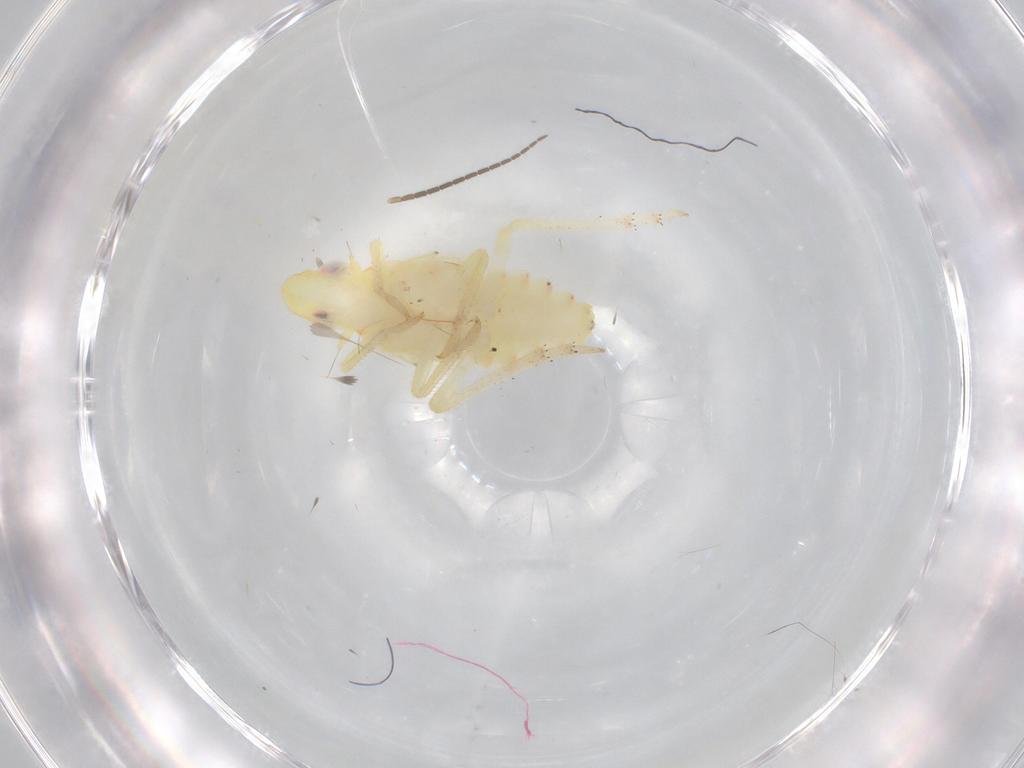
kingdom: Animalia
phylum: Arthropoda
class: Insecta
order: Hemiptera
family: Tropiduchidae
